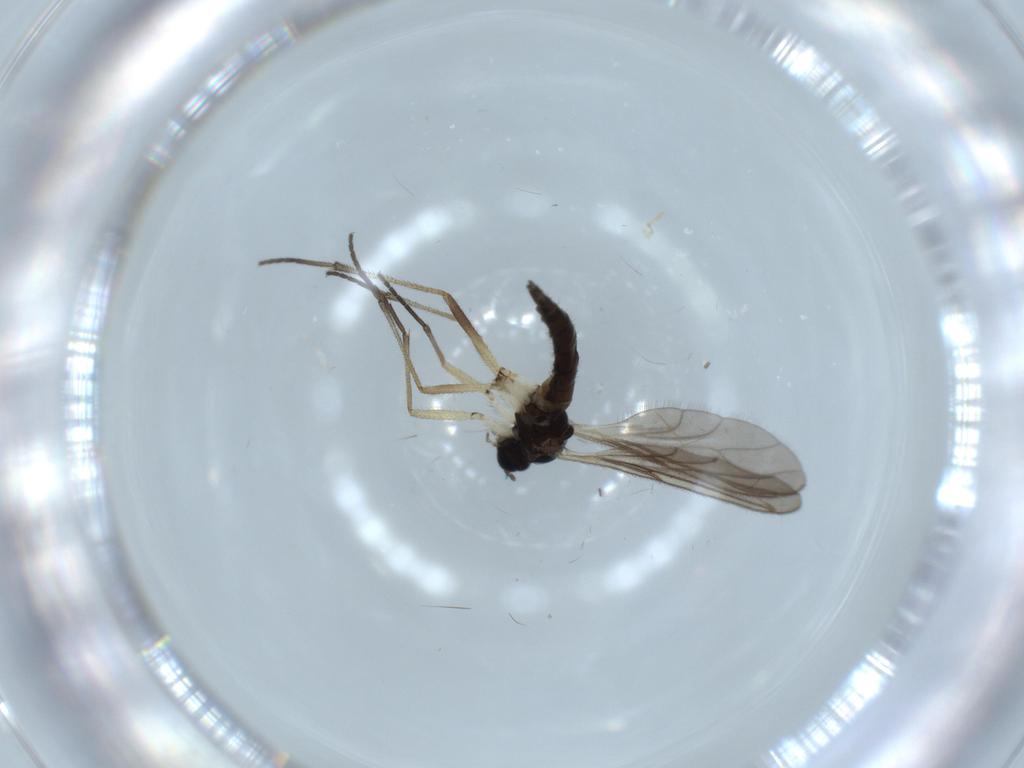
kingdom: Animalia
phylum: Arthropoda
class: Insecta
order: Diptera
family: Sciaridae
